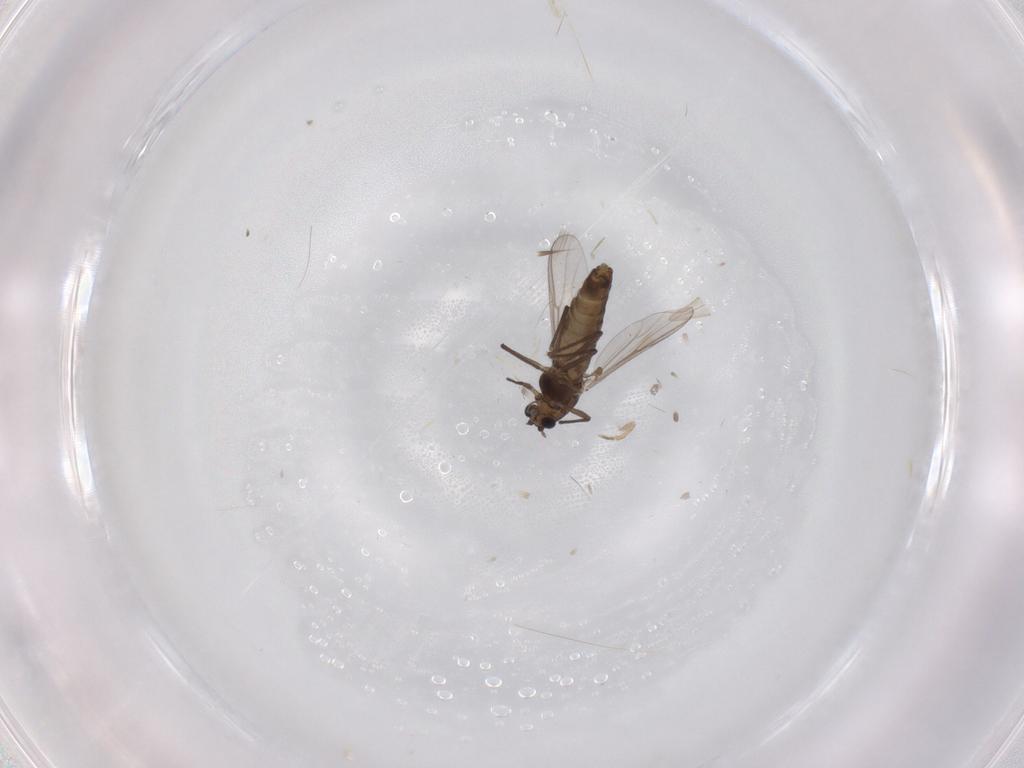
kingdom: Animalia
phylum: Arthropoda
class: Insecta
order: Diptera
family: Chironomidae
